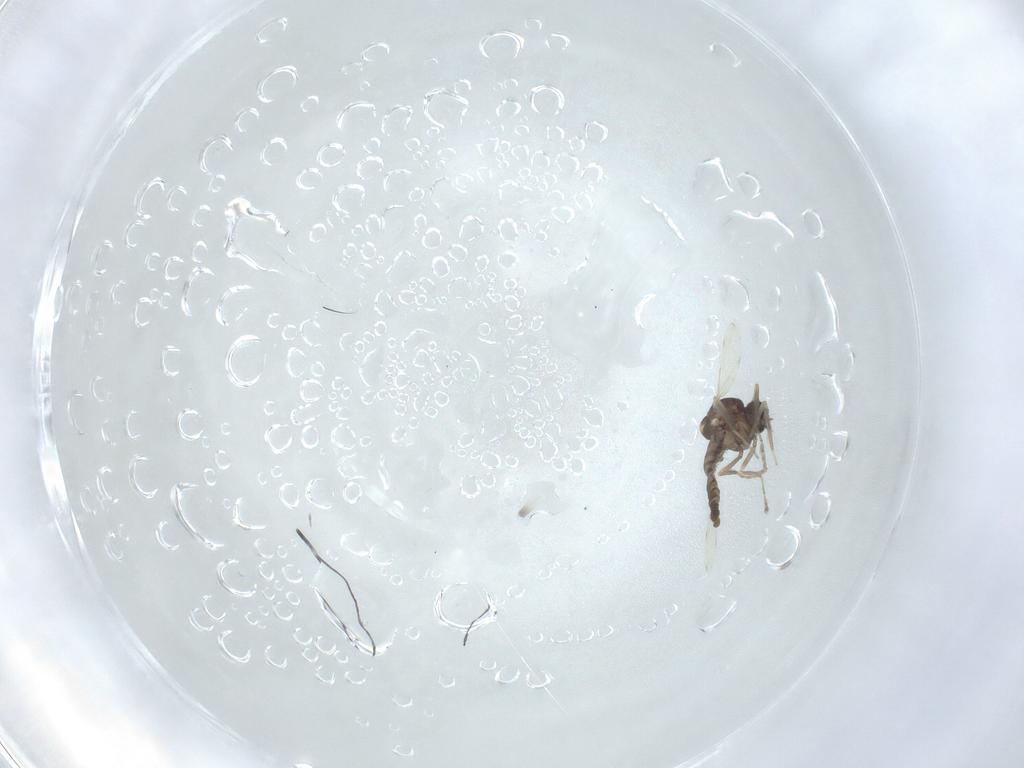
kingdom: Animalia
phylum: Arthropoda
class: Insecta
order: Diptera
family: Ceratopogonidae
